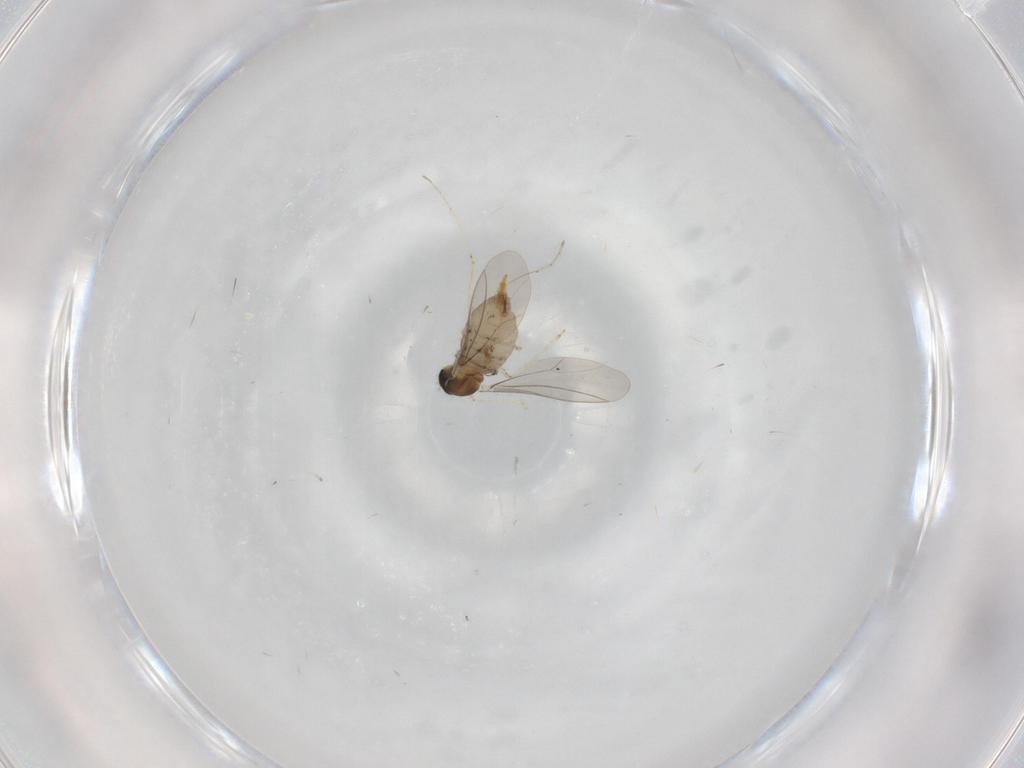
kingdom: Animalia
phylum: Arthropoda
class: Insecta
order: Diptera
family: Cecidomyiidae
